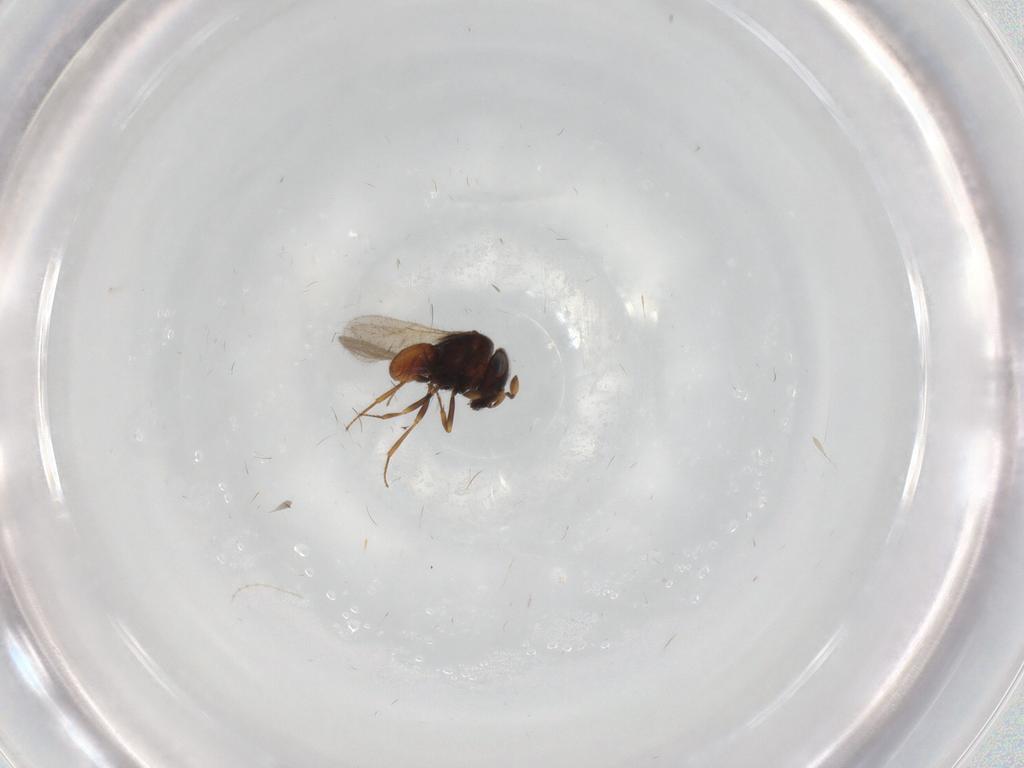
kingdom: Animalia
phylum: Arthropoda
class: Insecta
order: Hymenoptera
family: Scelionidae
